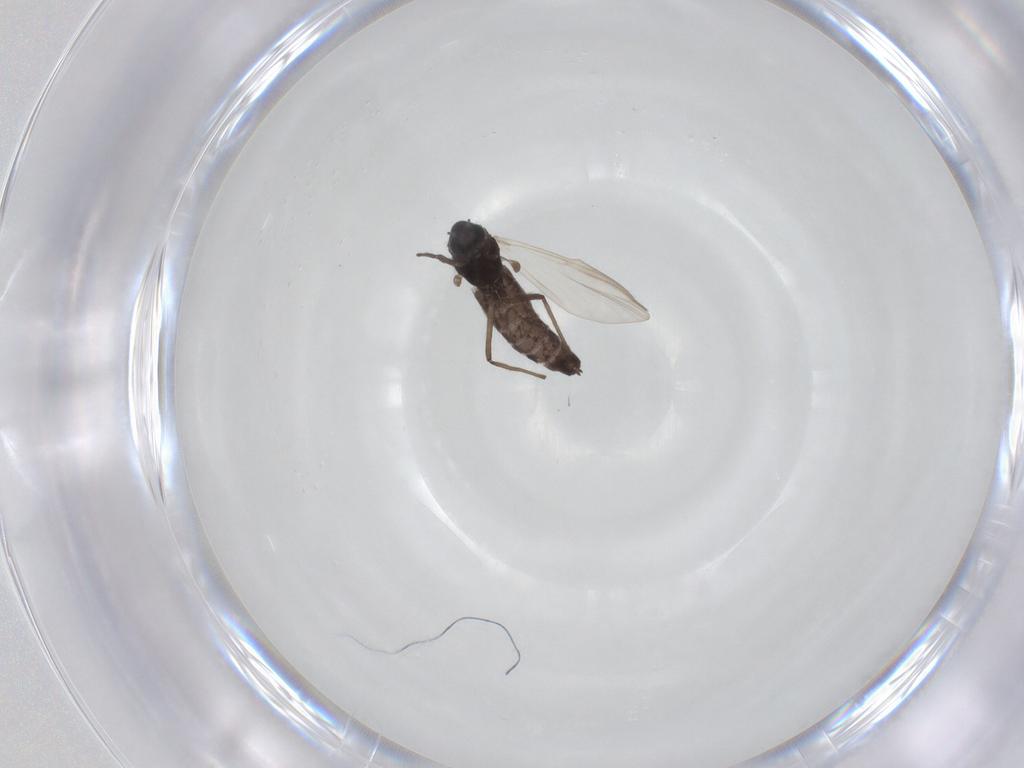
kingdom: Animalia
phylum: Arthropoda
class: Insecta
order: Diptera
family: Chironomidae
